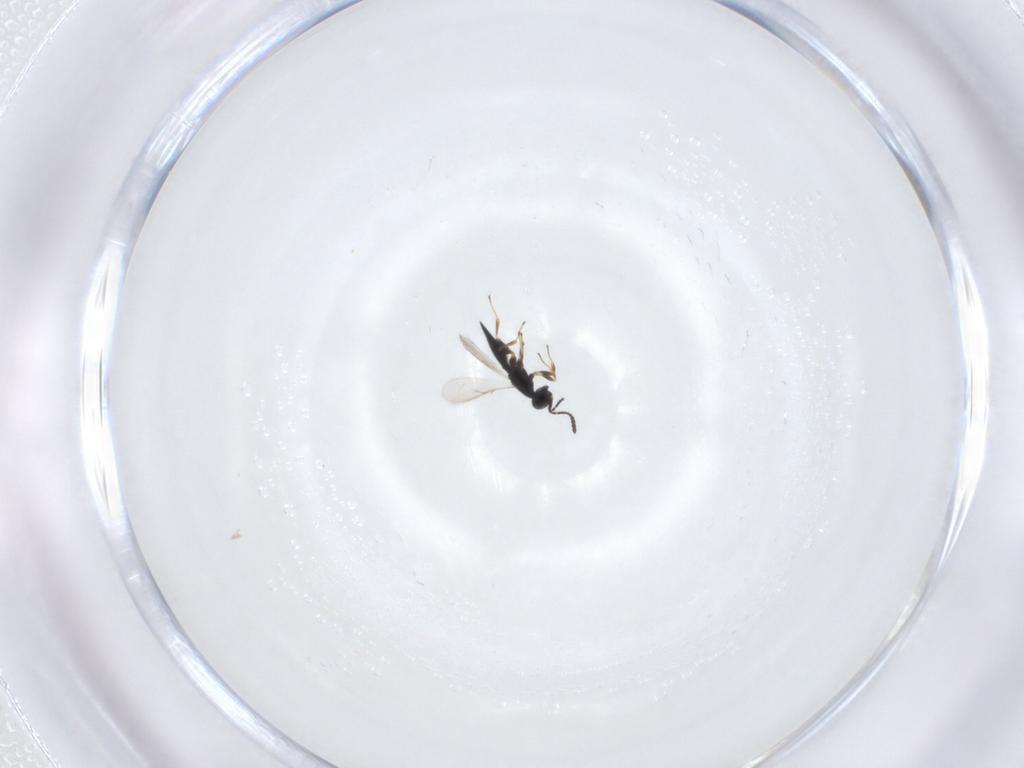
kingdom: Animalia
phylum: Arthropoda
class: Insecta
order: Hymenoptera
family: Scelionidae
